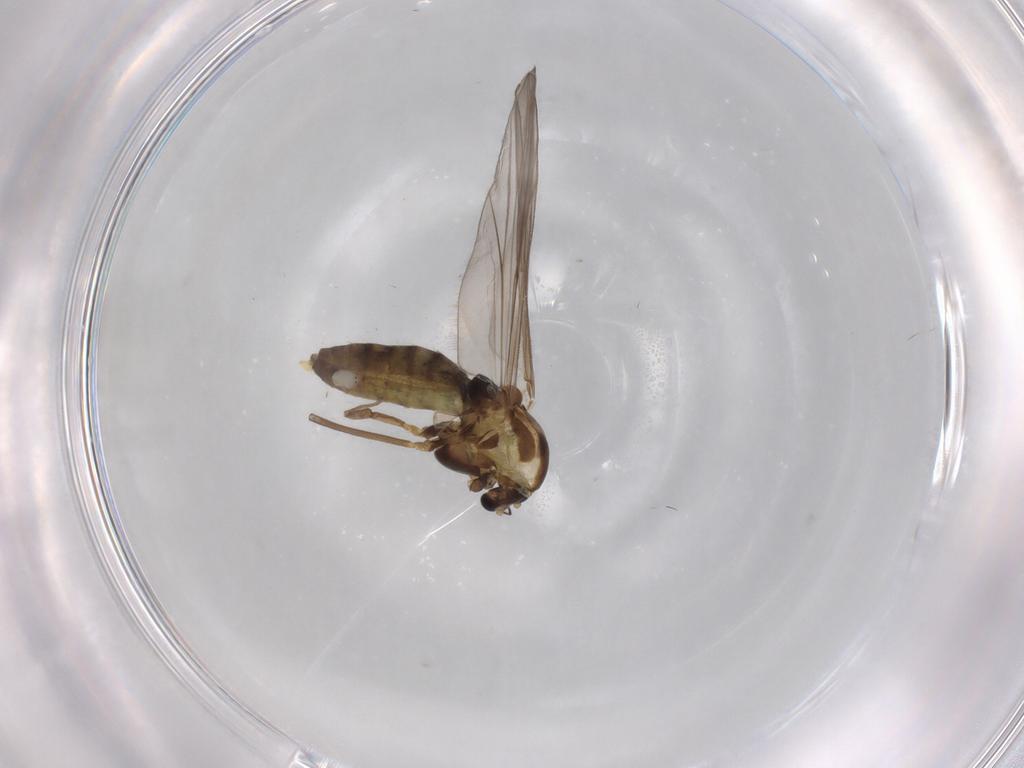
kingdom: Animalia
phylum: Arthropoda
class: Insecta
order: Diptera
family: Chironomidae
